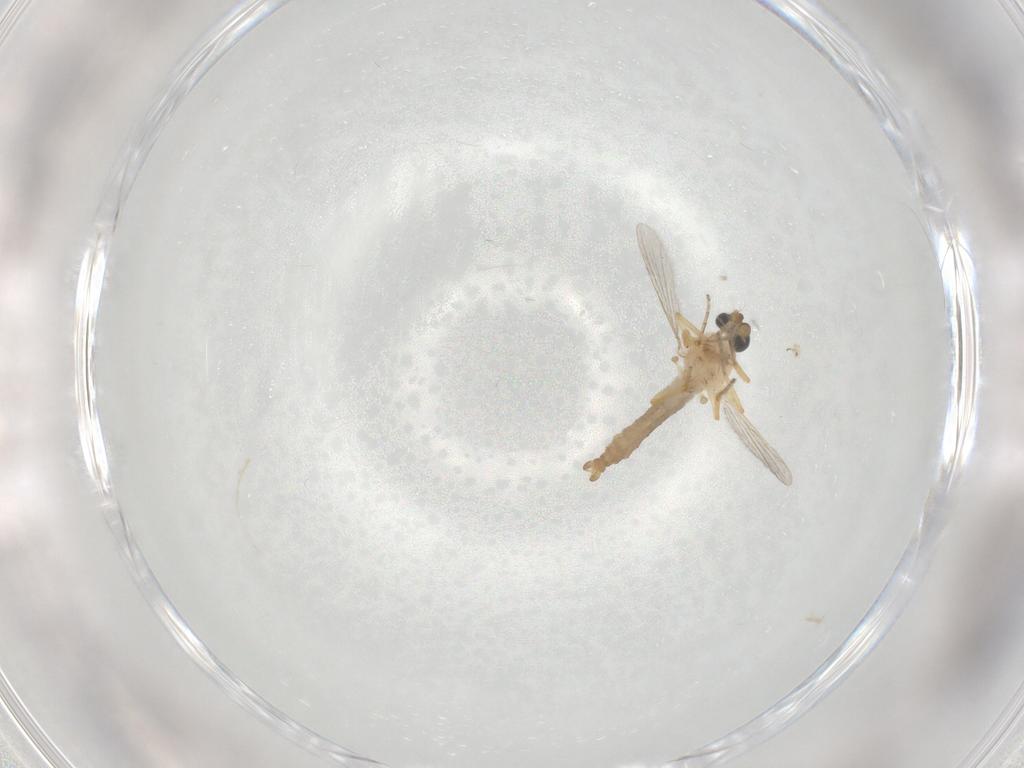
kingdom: Animalia
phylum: Arthropoda
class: Insecta
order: Diptera
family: Ceratopogonidae
